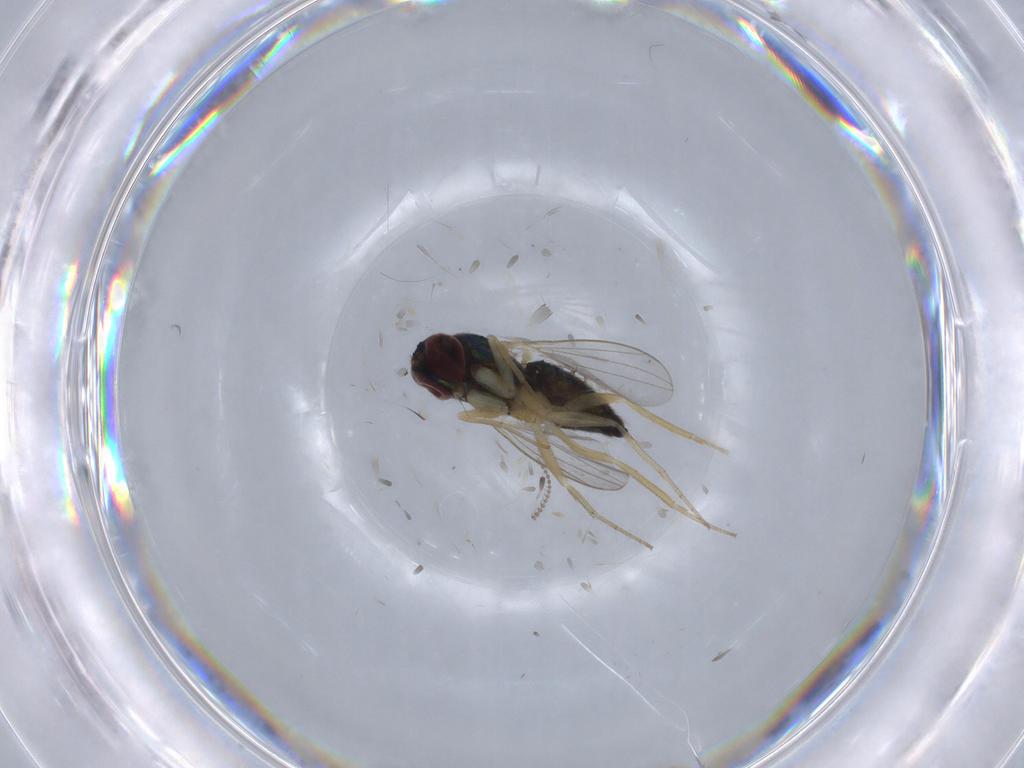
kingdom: Animalia
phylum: Arthropoda
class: Insecta
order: Diptera
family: Dolichopodidae
